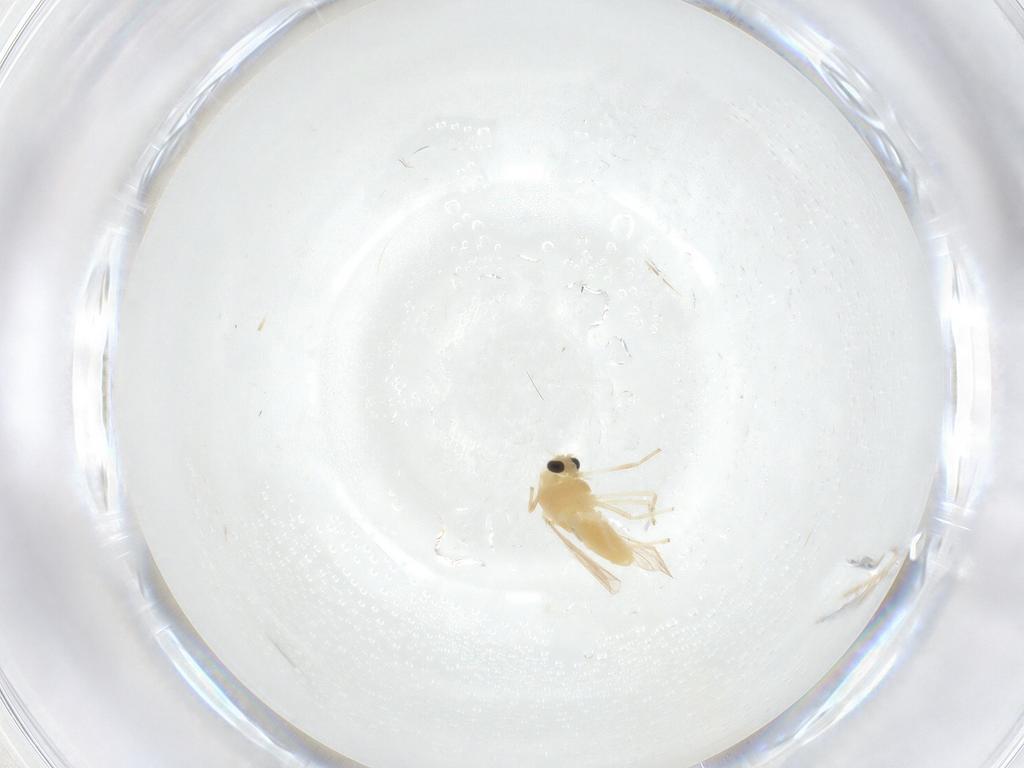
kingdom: Animalia
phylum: Arthropoda
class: Insecta
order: Diptera
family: Chironomidae
